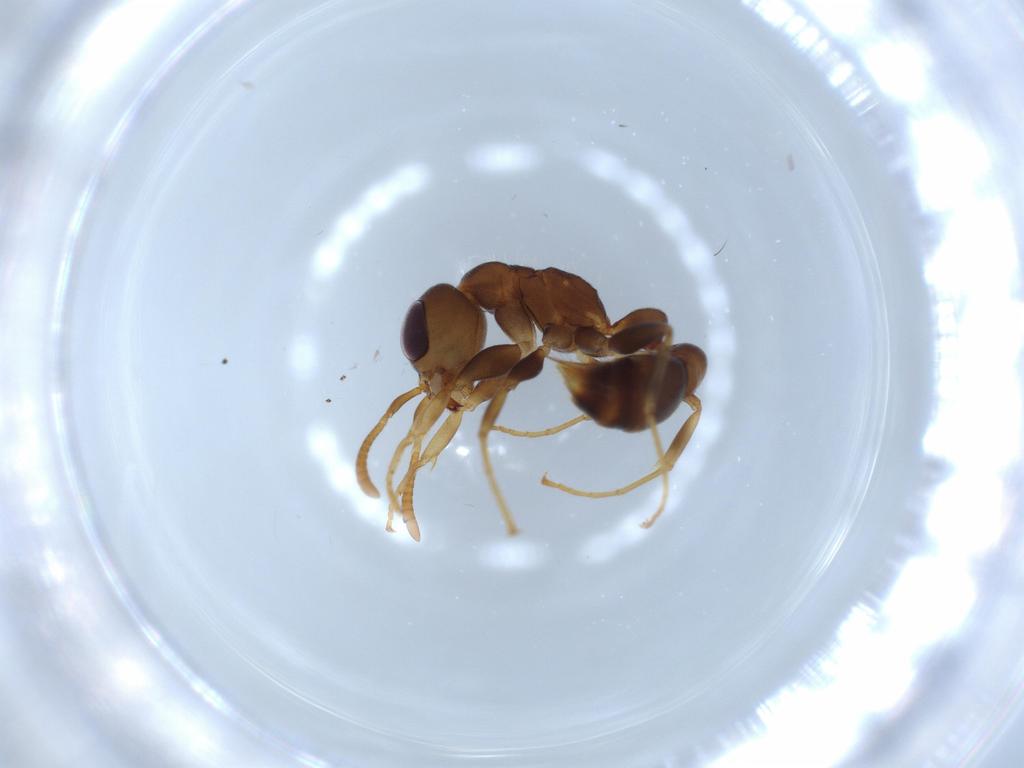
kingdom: Animalia
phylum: Arthropoda
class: Insecta
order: Hymenoptera
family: Formicidae
